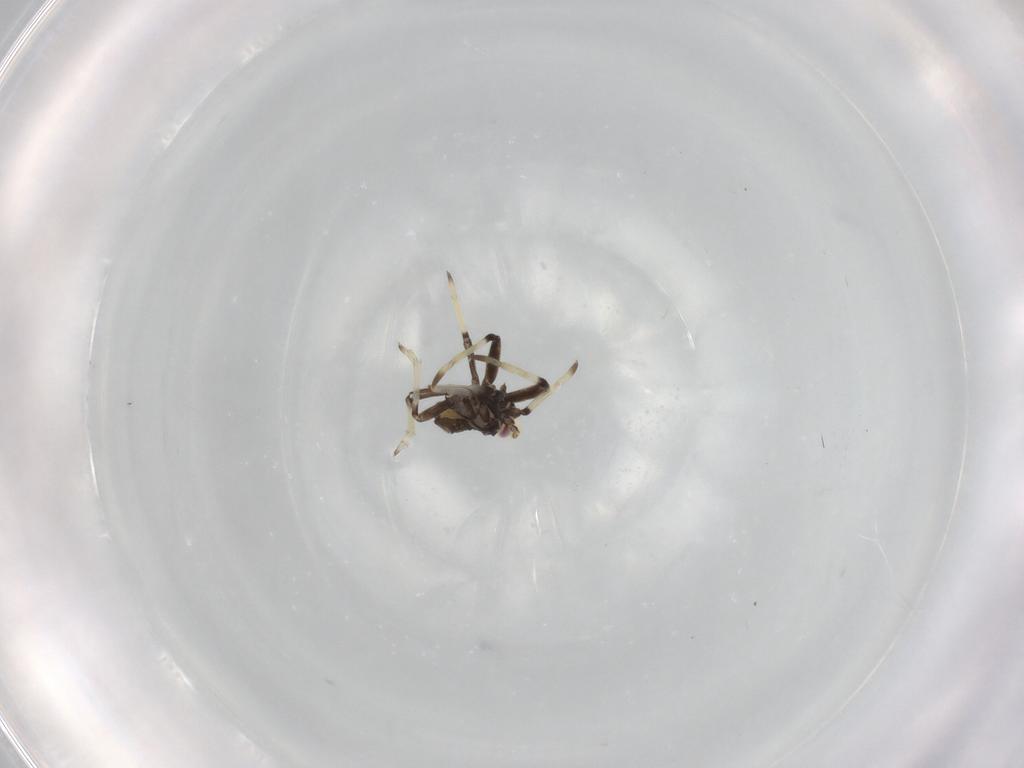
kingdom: Animalia
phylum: Arthropoda
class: Insecta
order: Hemiptera
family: Dictyopharidae
